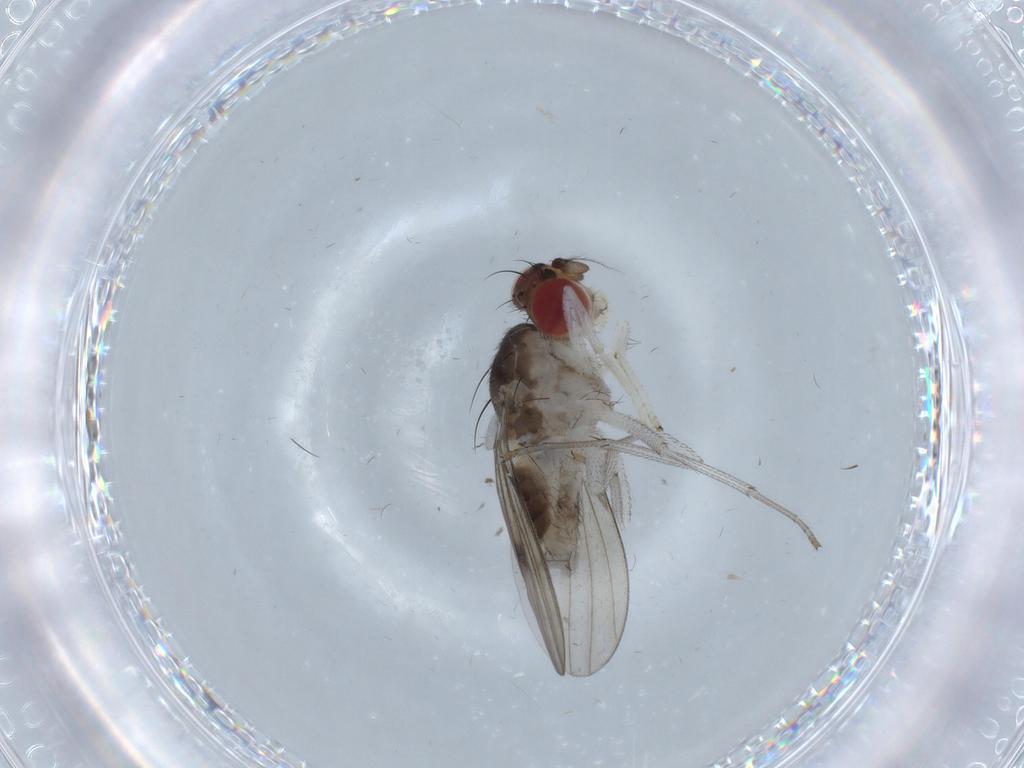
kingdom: Animalia
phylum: Arthropoda
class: Insecta
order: Diptera
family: Lauxaniidae
